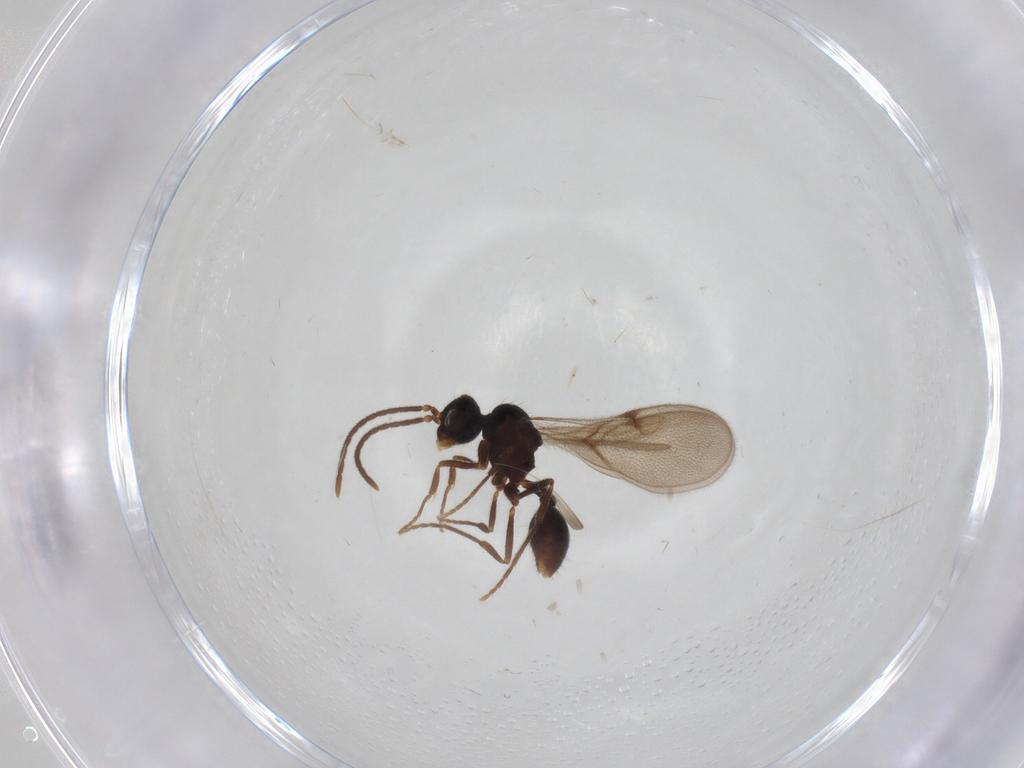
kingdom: Animalia
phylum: Arthropoda
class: Insecta
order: Hymenoptera
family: Formicidae
